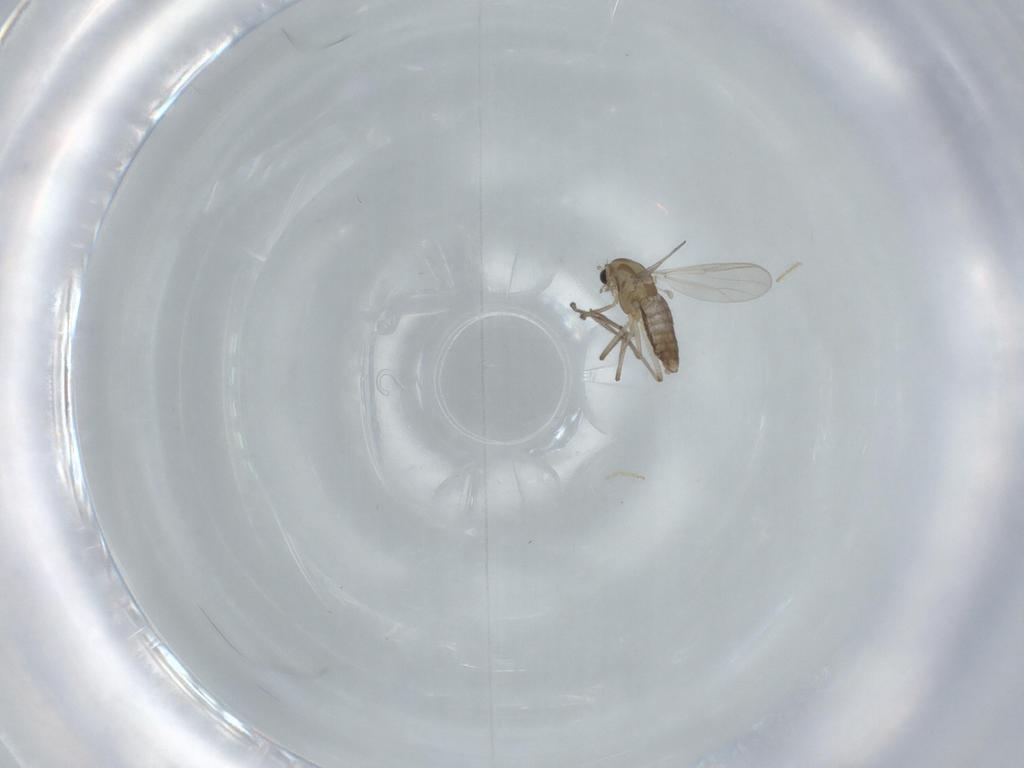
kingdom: Animalia
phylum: Arthropoda
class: Insecta
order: Diptera
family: Chironomidae
